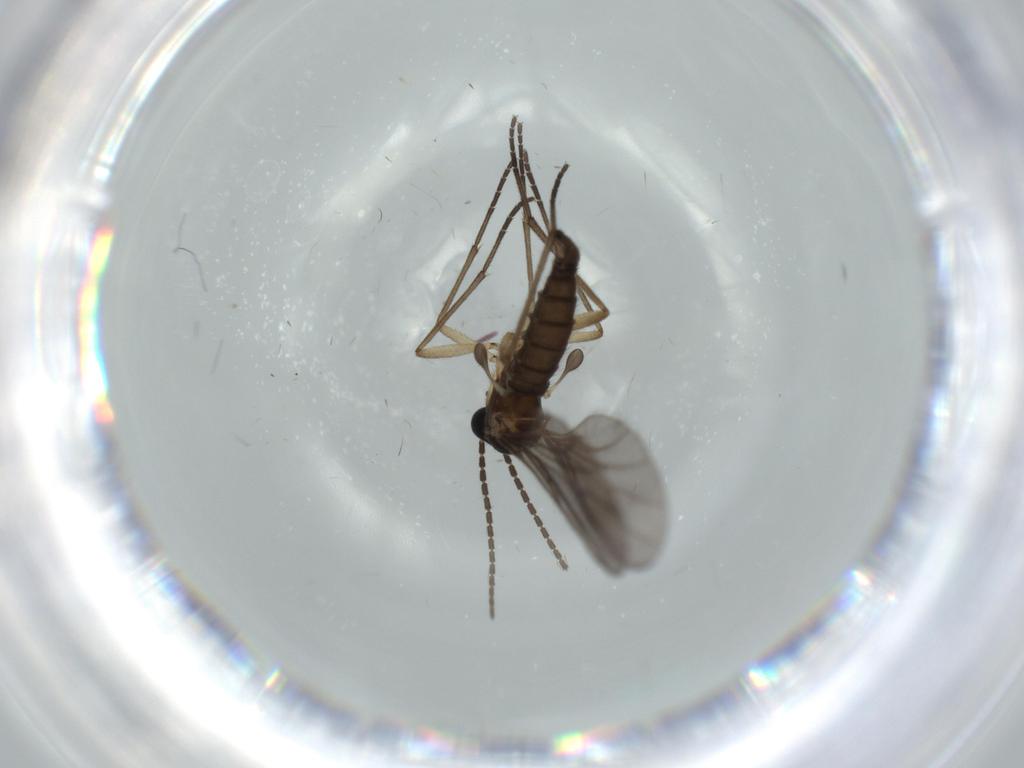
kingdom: Animalia
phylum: Arthropoda
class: Insecta
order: Diptera
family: Sciaridae
